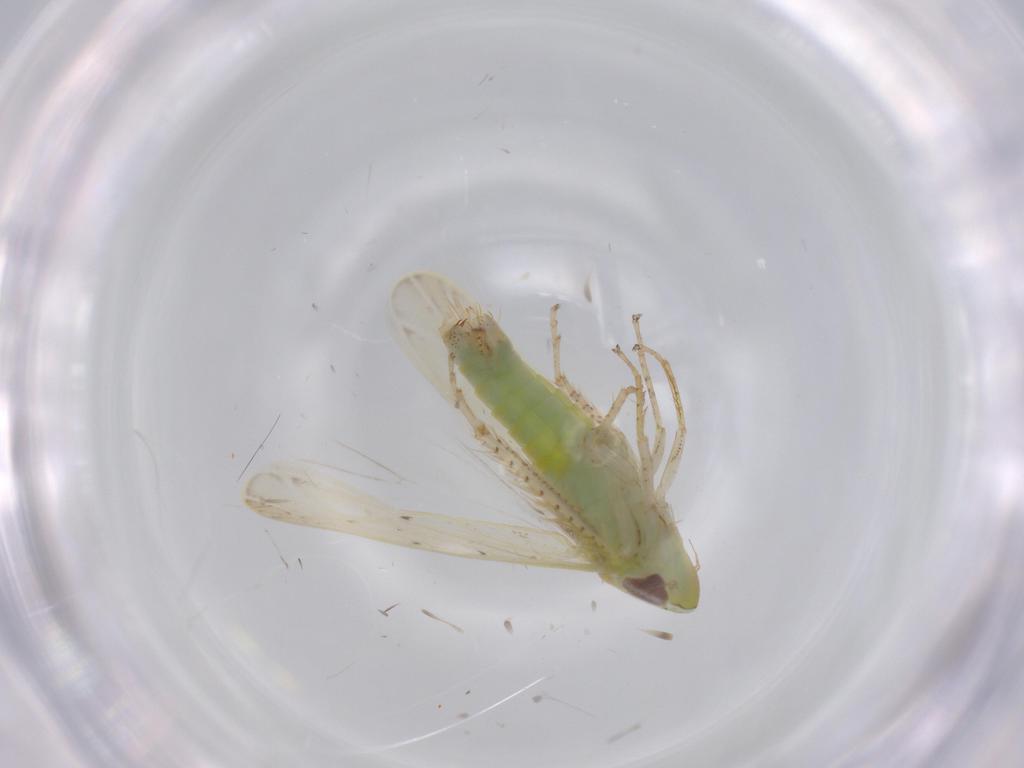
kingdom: Animalia
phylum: Arthropoda
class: Insecta
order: Hemiptera
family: Cicadellidae
